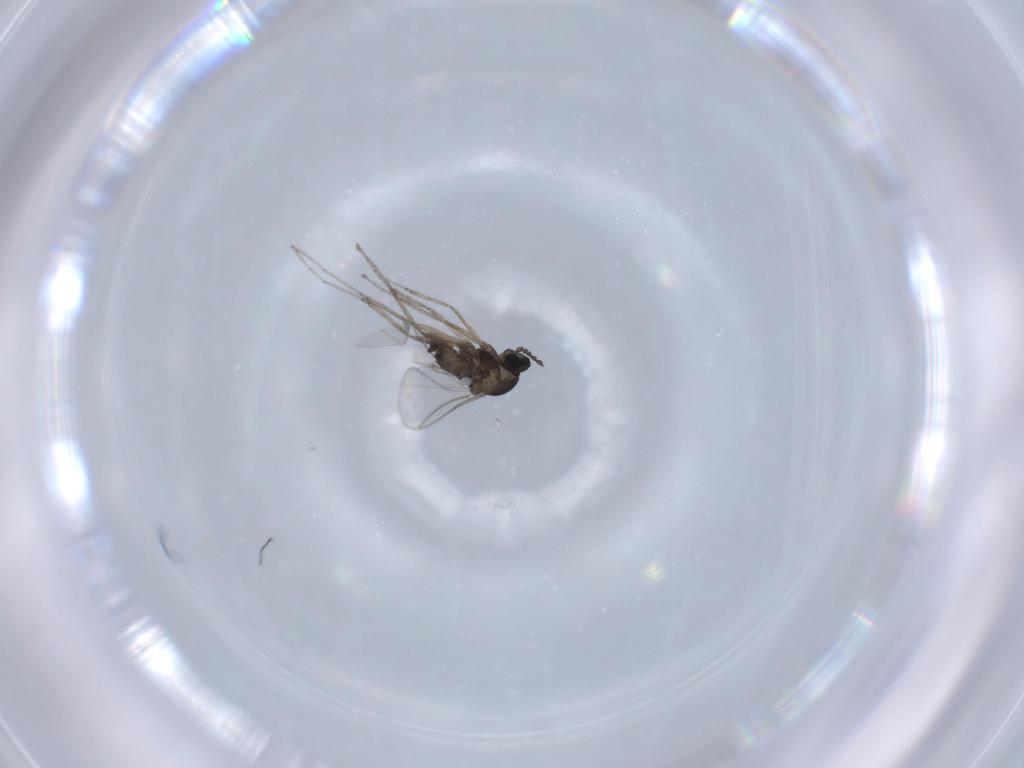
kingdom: Animalia
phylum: Arthropoda
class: Insecta
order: Diptera
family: Cecidomyiidae
